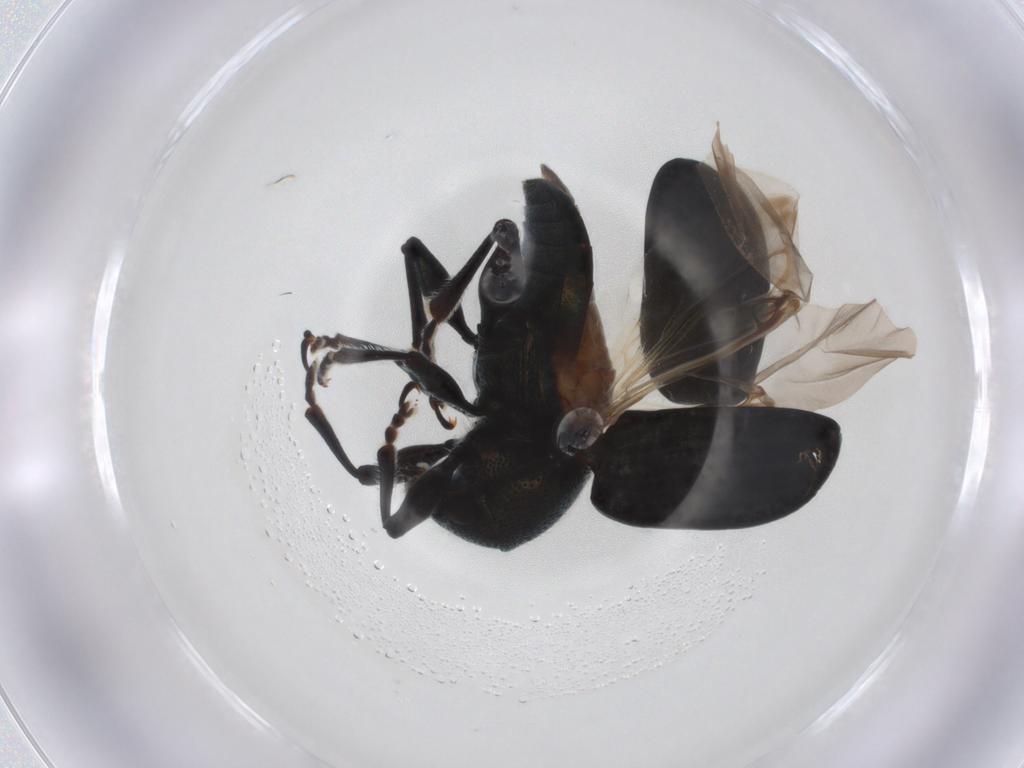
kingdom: Animalia
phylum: Arthropoda
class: Insecta
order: Coleoptera
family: Chrysomelidae
